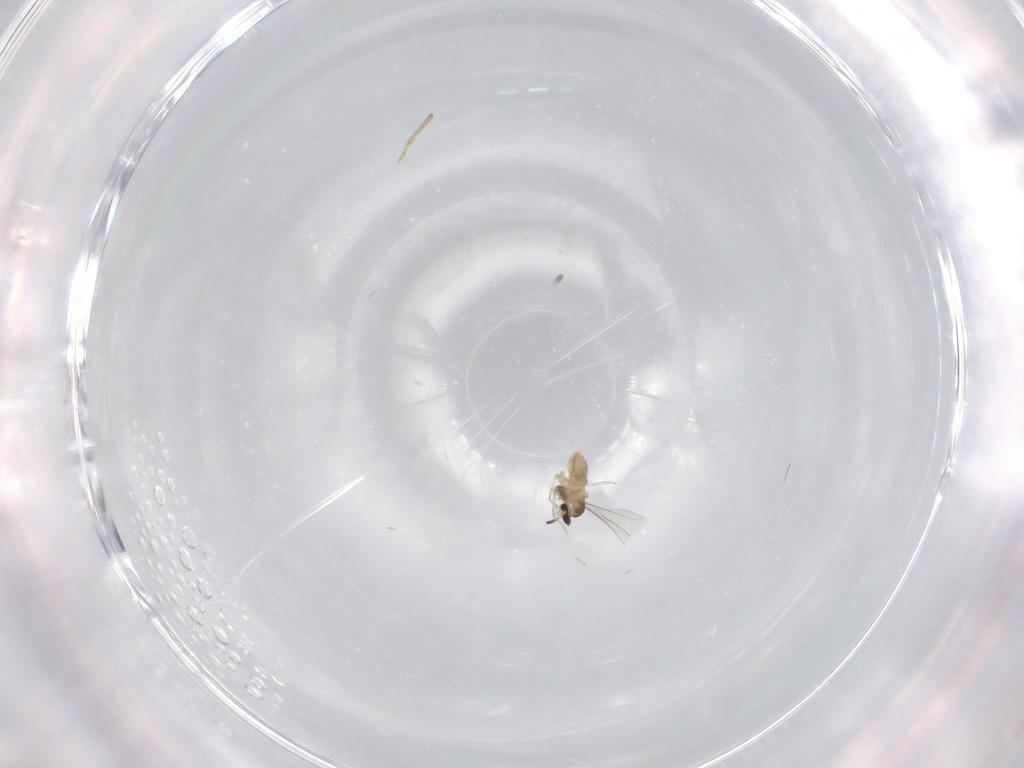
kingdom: Animalia
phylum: Arthropoda
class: Insecta
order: Diptera
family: Cecidomyiidae
